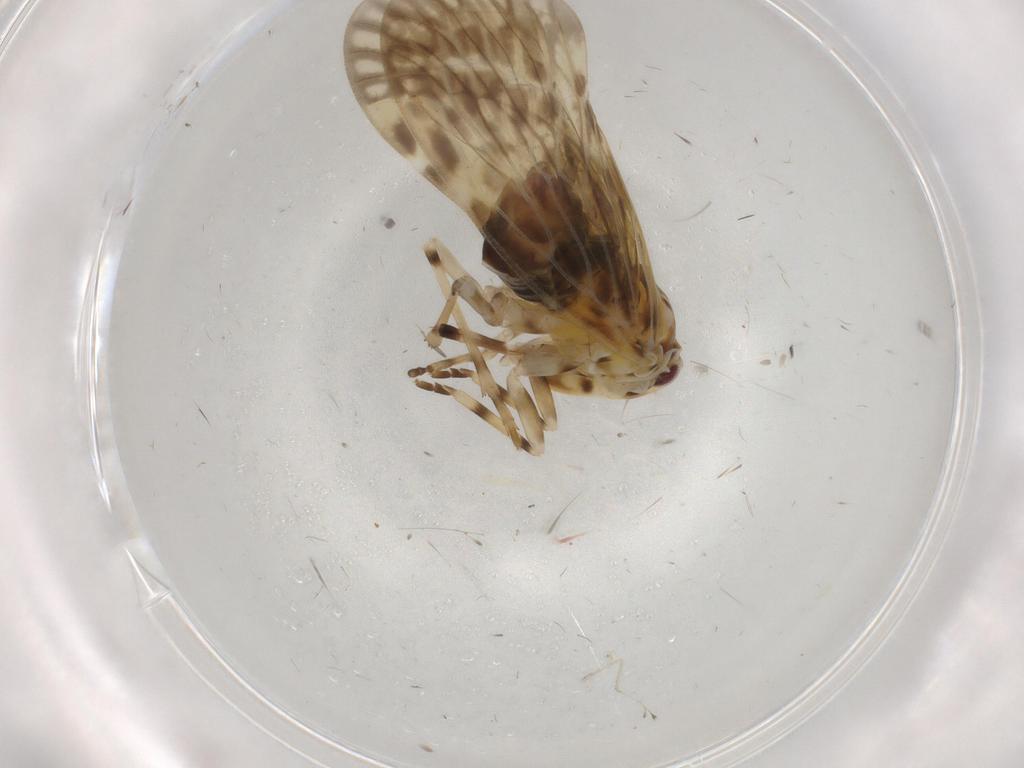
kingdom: Animalia
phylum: Arthropoda
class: Insecta
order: Hemiptera
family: Derbidae
